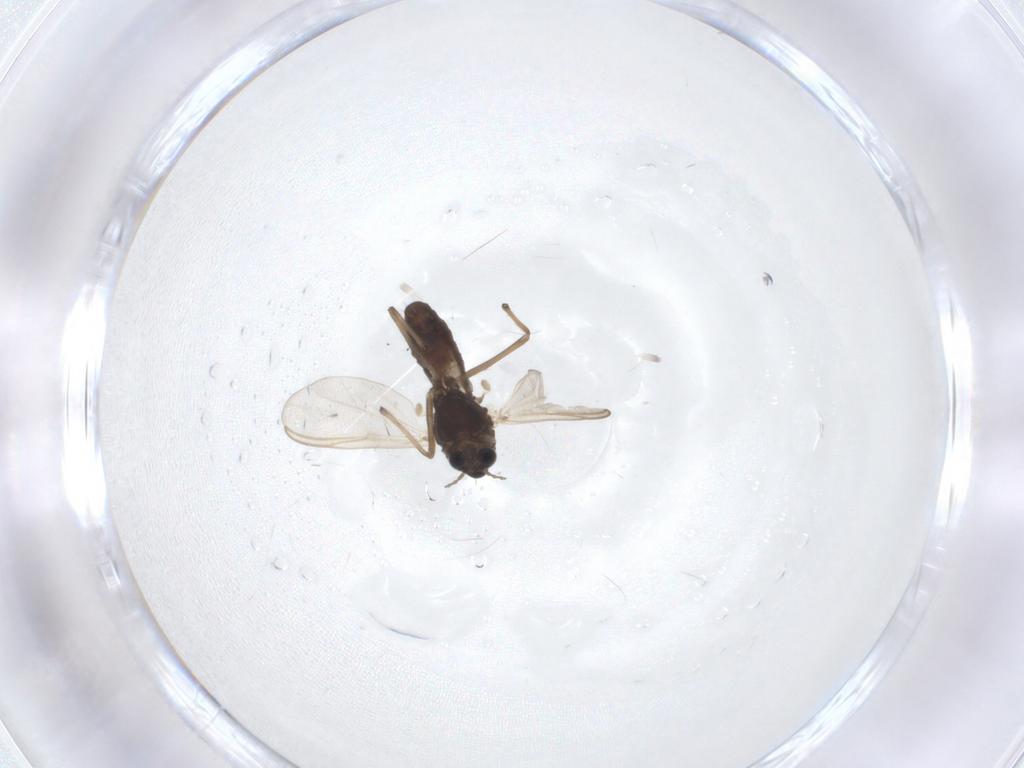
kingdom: Animalia
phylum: Arthropoda
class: Insecta
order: Diptera
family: Chironomidae
